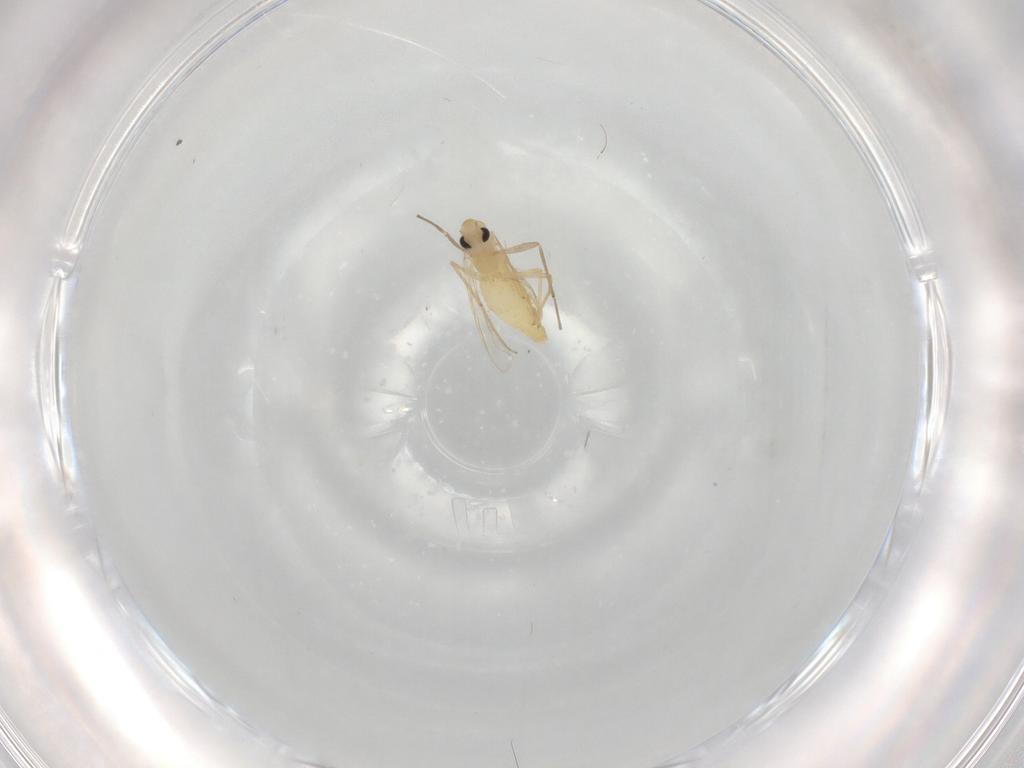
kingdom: Animalia
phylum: Arthropoda
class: Insecta
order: Diptera
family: Chironomidae
